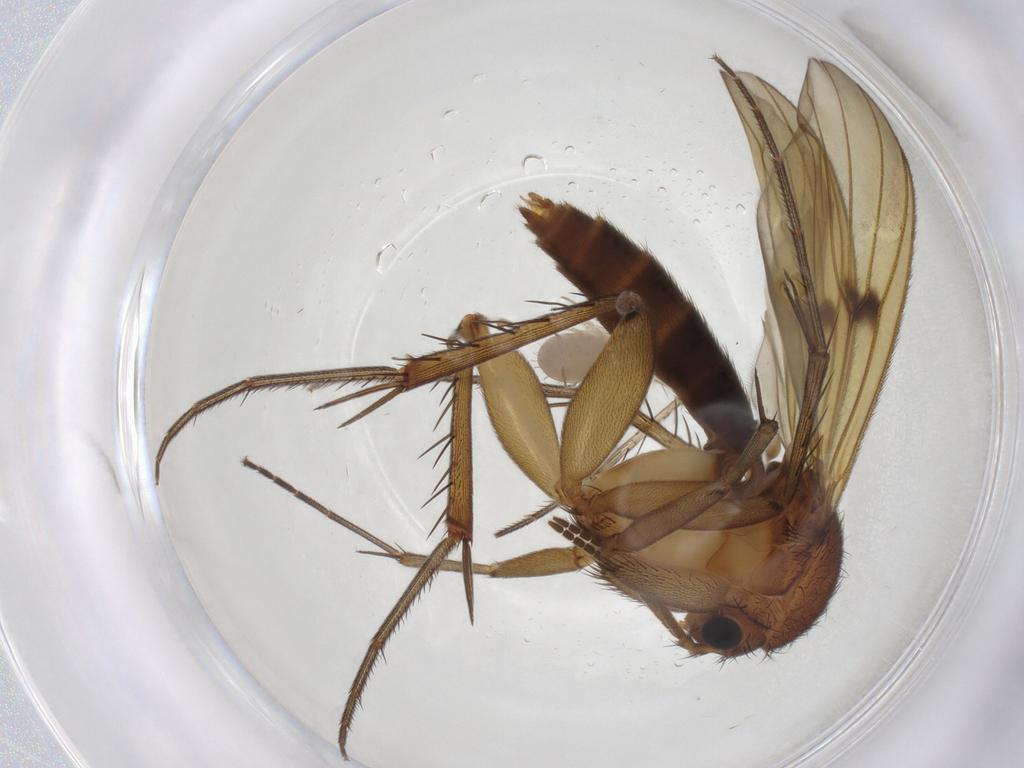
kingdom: Animalia
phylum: Arthropoda
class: Insecta
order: Diptera
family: Mycetophilidae
